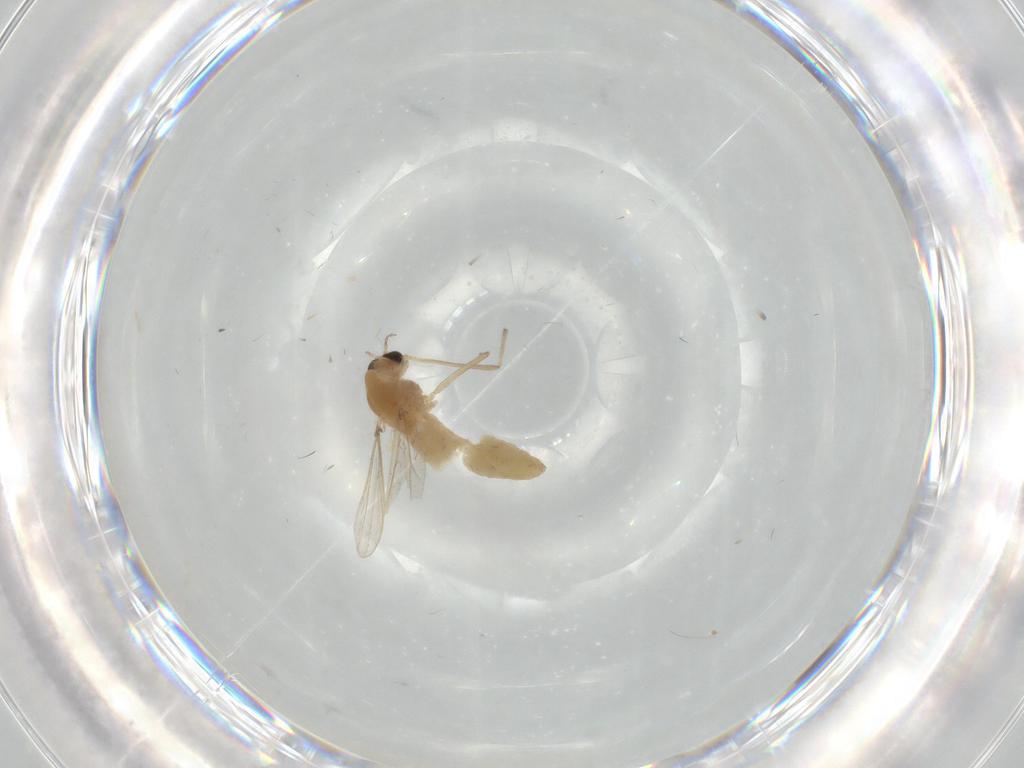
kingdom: Animalia
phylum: Arthropoda
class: Insecta
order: Diptera
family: Chironomidae
